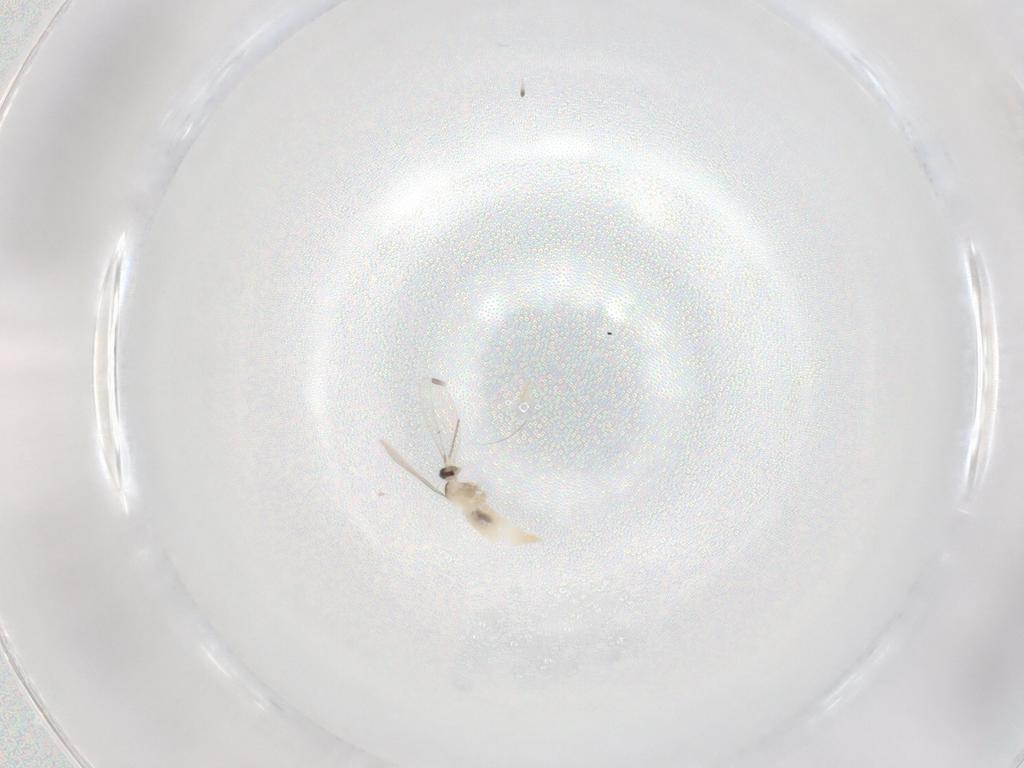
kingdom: Animalia
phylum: Arthropoda
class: Insecta
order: Diptera
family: Cecidomyiidae
